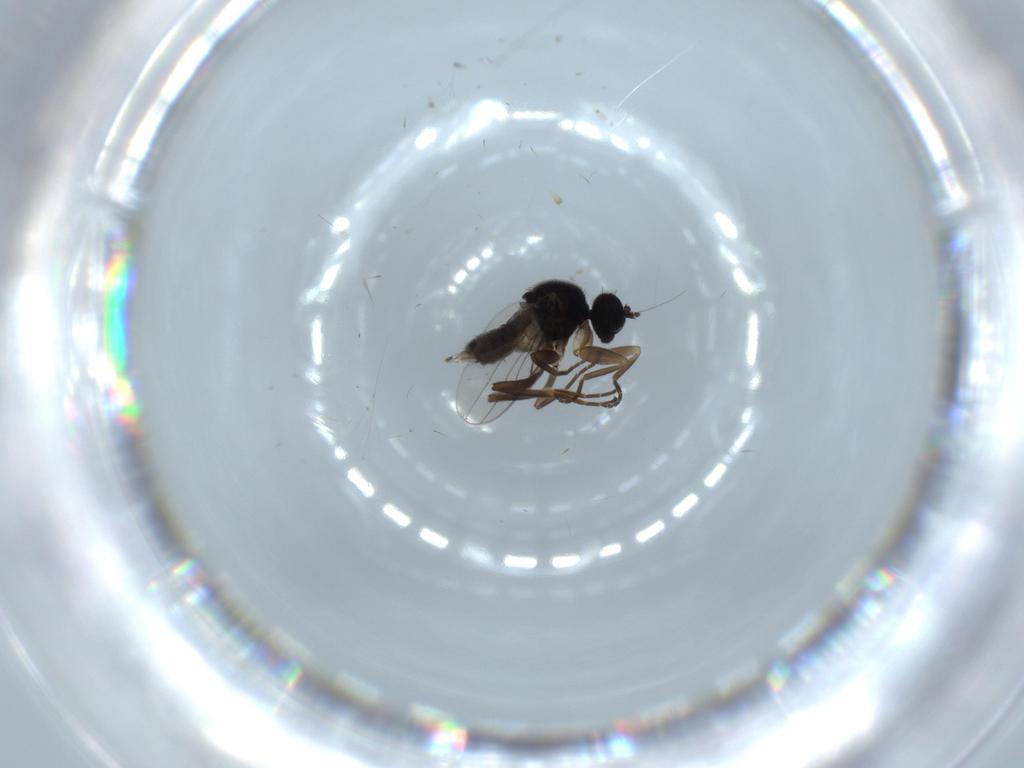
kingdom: Animalia
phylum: Arthropoda
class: Insecta
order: Diptera
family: Hybotidae
